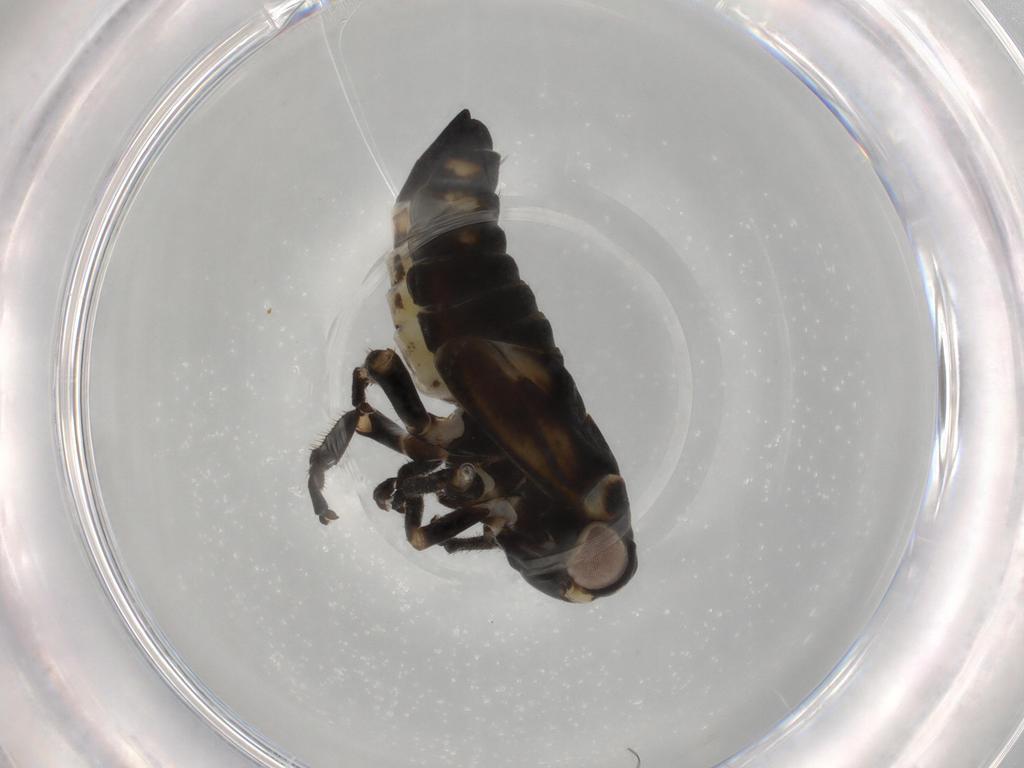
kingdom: Animalia
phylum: Arthropoda
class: Insecta
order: Hemiptera
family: Cicadellidae
